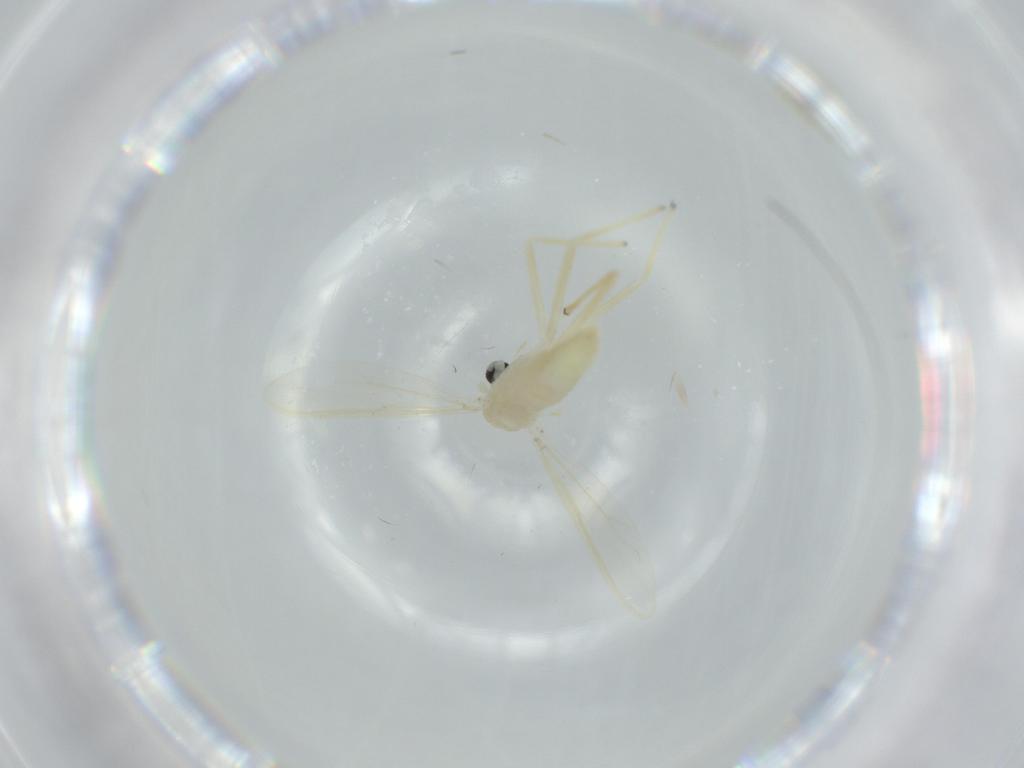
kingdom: Animalia
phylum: Arthropoda
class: Insecta
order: Diptera
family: Chironomidae
